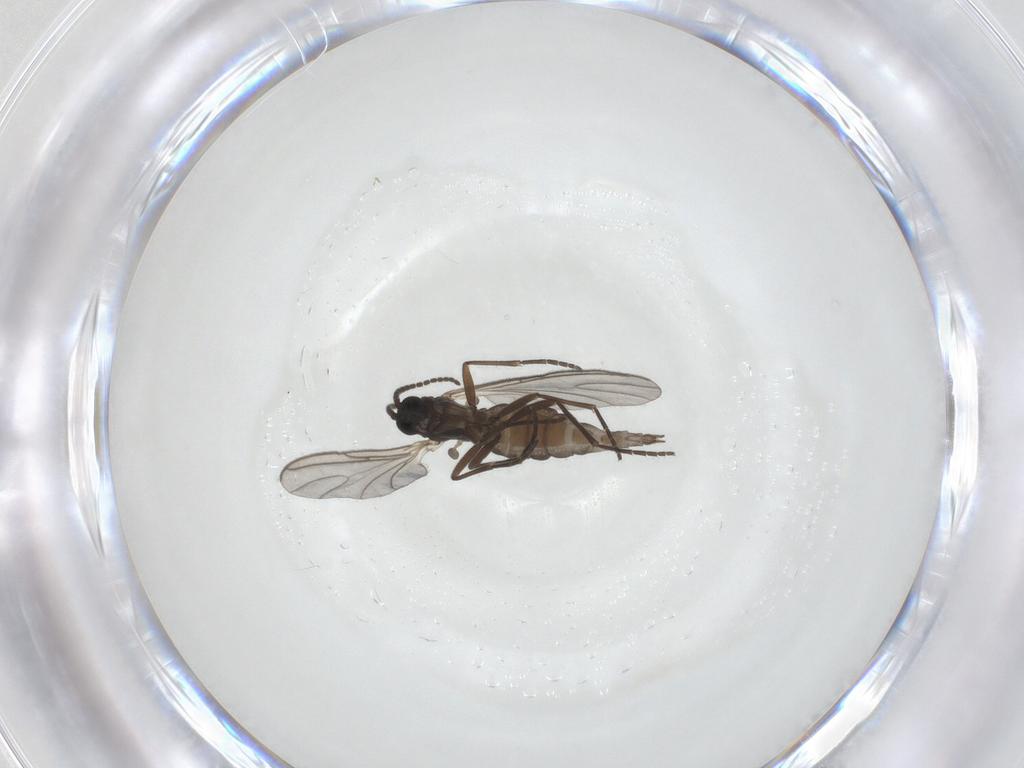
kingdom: Animalia
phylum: Arthropoda
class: Insecta
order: Diptera
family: Sciaridae
